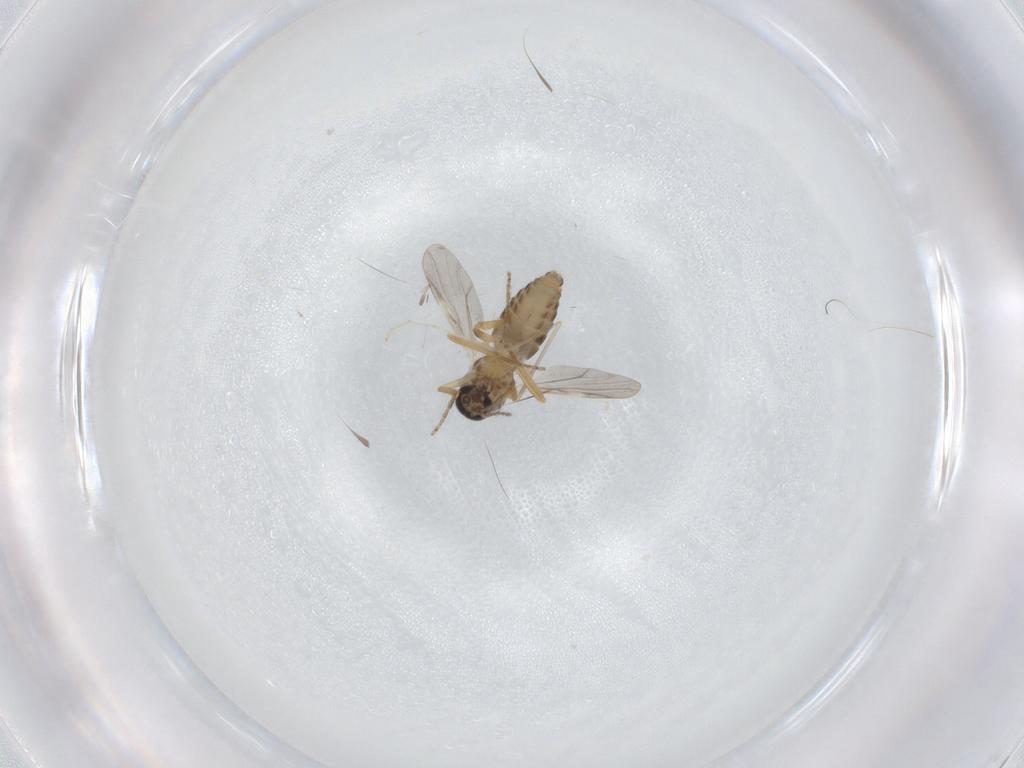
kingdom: Animalia
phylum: Arthropoda
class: Insecta
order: Diptera
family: Ceratopogonidae
